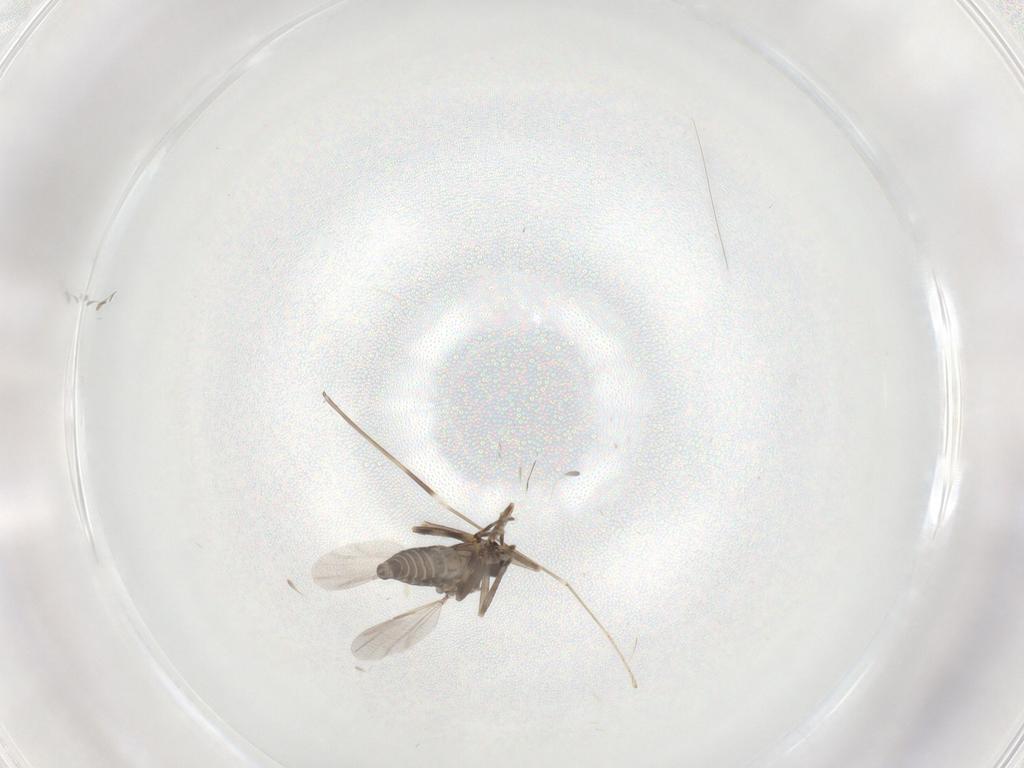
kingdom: Animalia
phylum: Arthropoda
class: Insecta
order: Diptera
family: Ceratopogonidae
